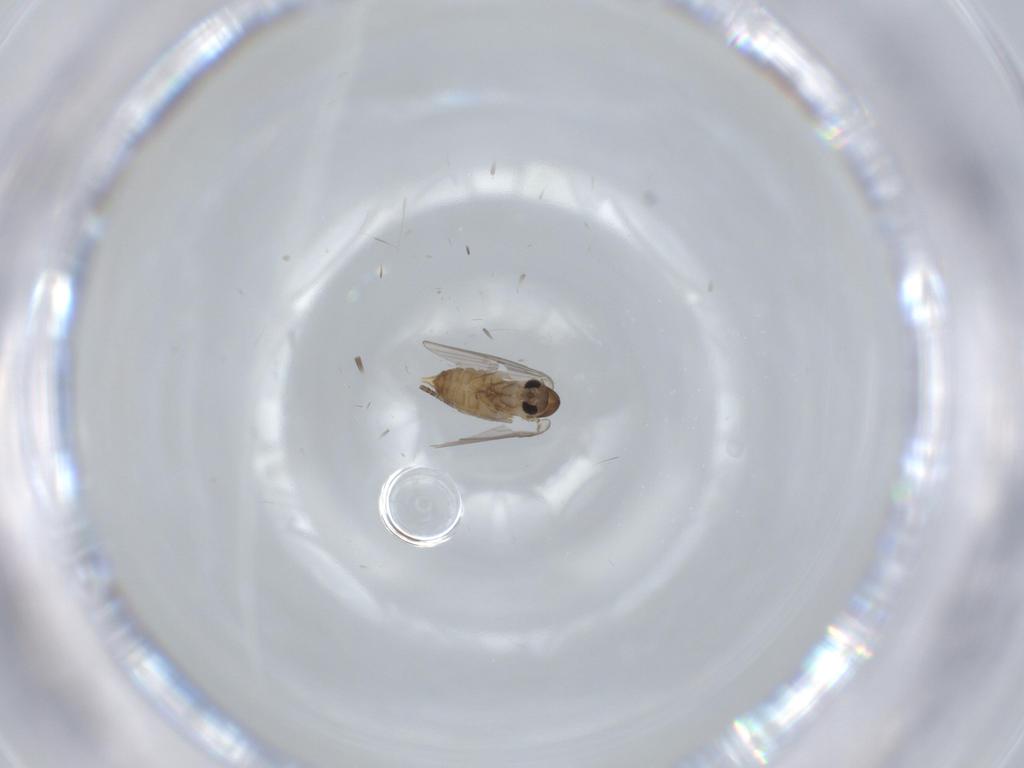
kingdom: Animalia
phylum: Arthropoda
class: Insecta
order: Diptera
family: Psychodidae
